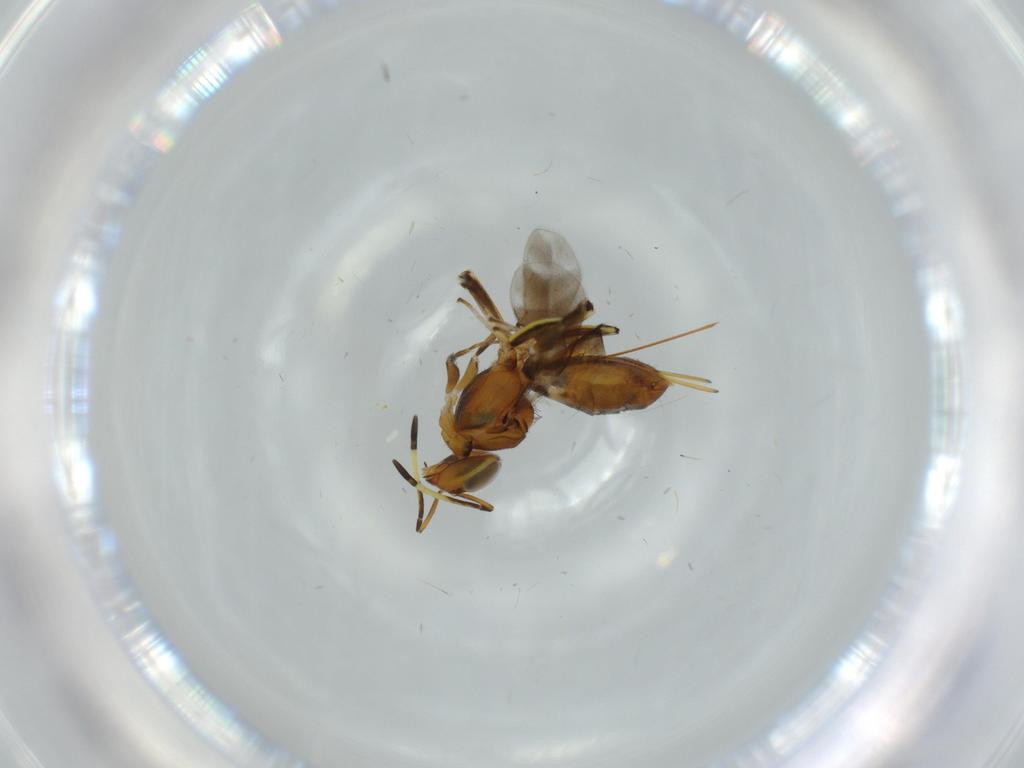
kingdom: Animalia
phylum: Arthropoda
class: Insecta
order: Hymenoptera
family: Eupelmidae
